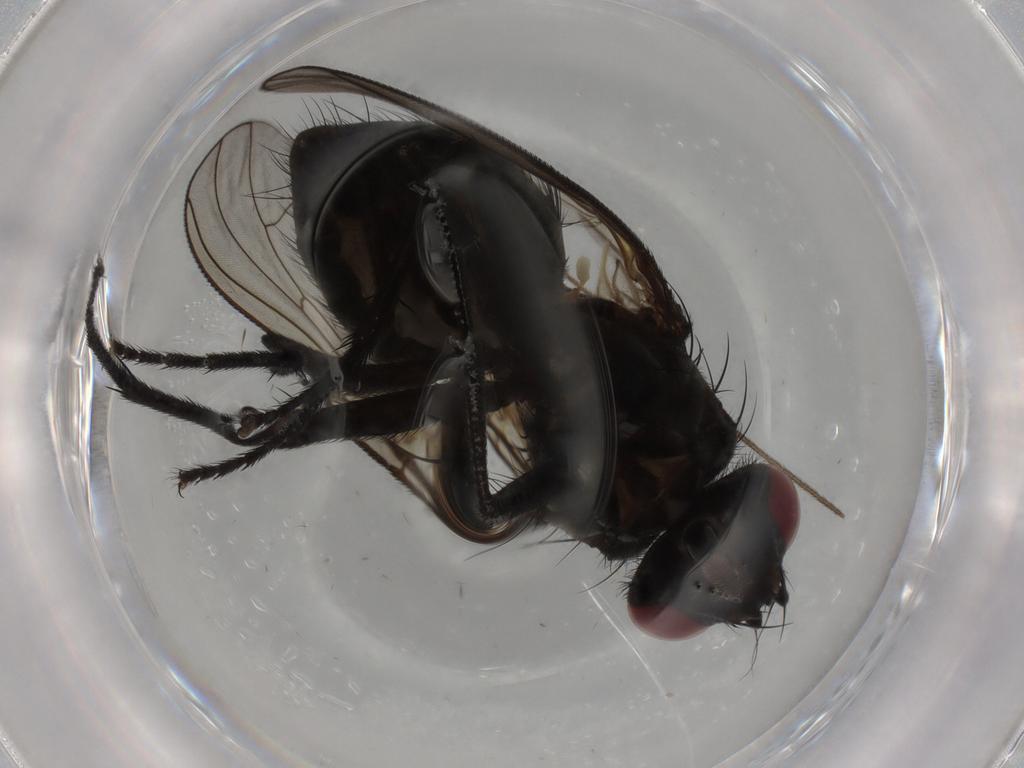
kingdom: Animalia
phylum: Arthropoda
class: Insecta
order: Diptera
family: Muscidae
